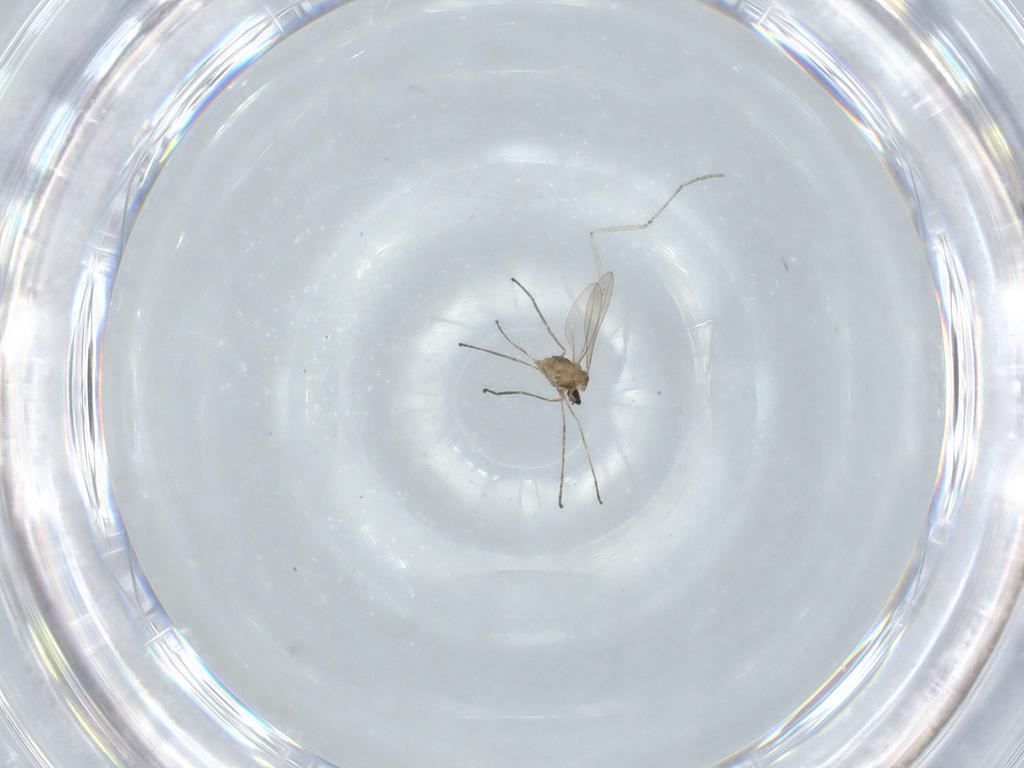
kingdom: Animalia
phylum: Arthropoda
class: Insecta
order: Diptera
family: Cecidomyiidae
